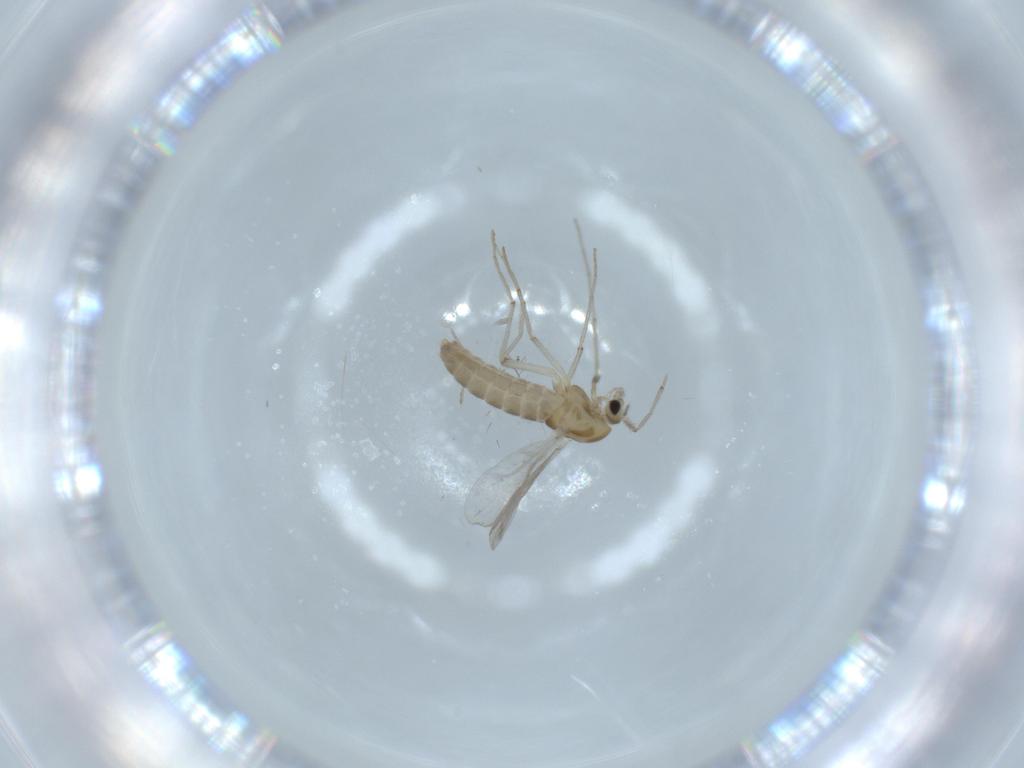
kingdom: Animalia
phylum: Arthropoda
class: Insecta
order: Diptera
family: Chironomidae
